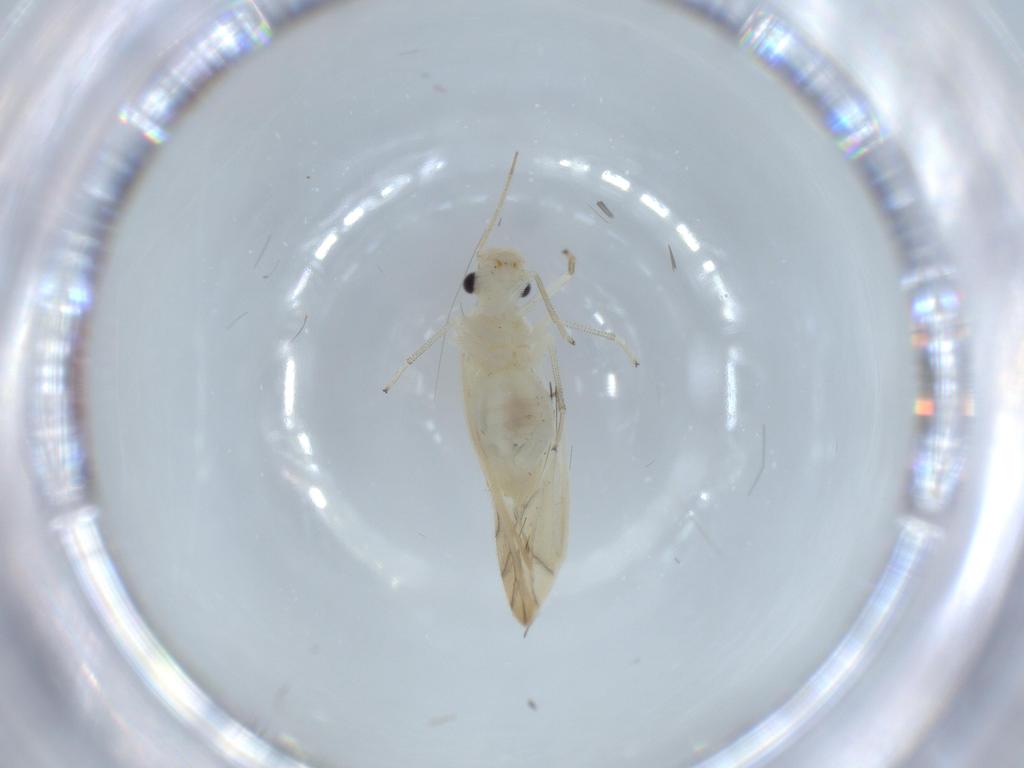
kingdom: Animalia
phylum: Arthropoda
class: Insecta
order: Psocodea
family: Caeciliusidae
